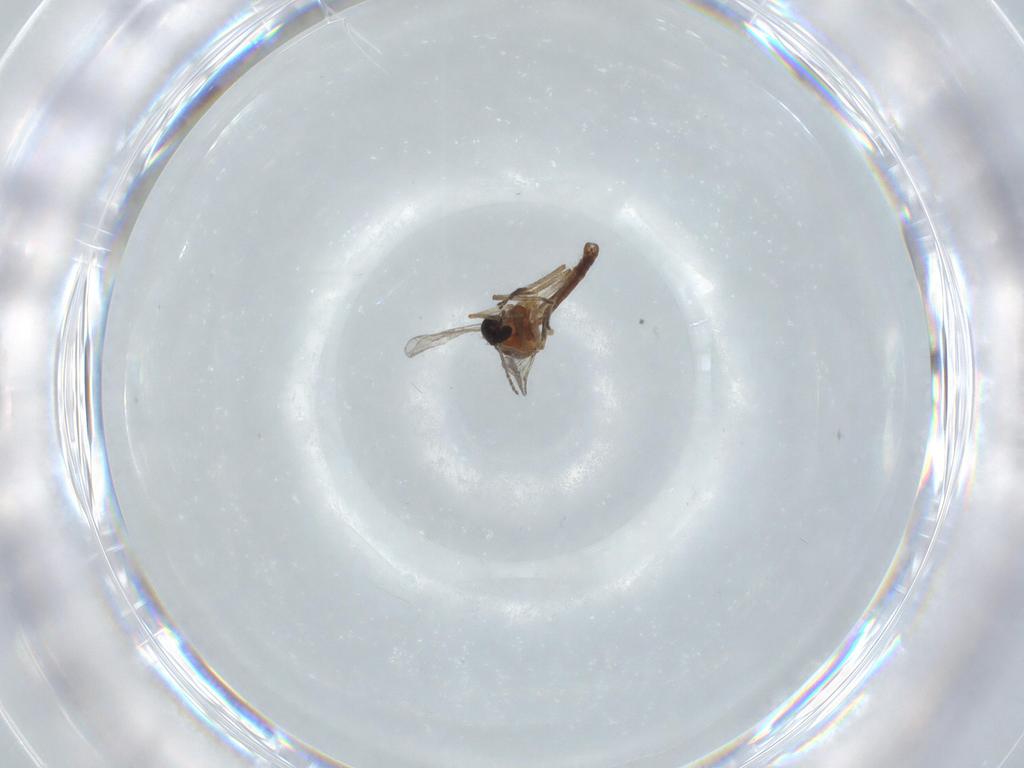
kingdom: Animalia
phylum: Arthropoda
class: Insecta
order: Diptera
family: Ceratopogonidae
